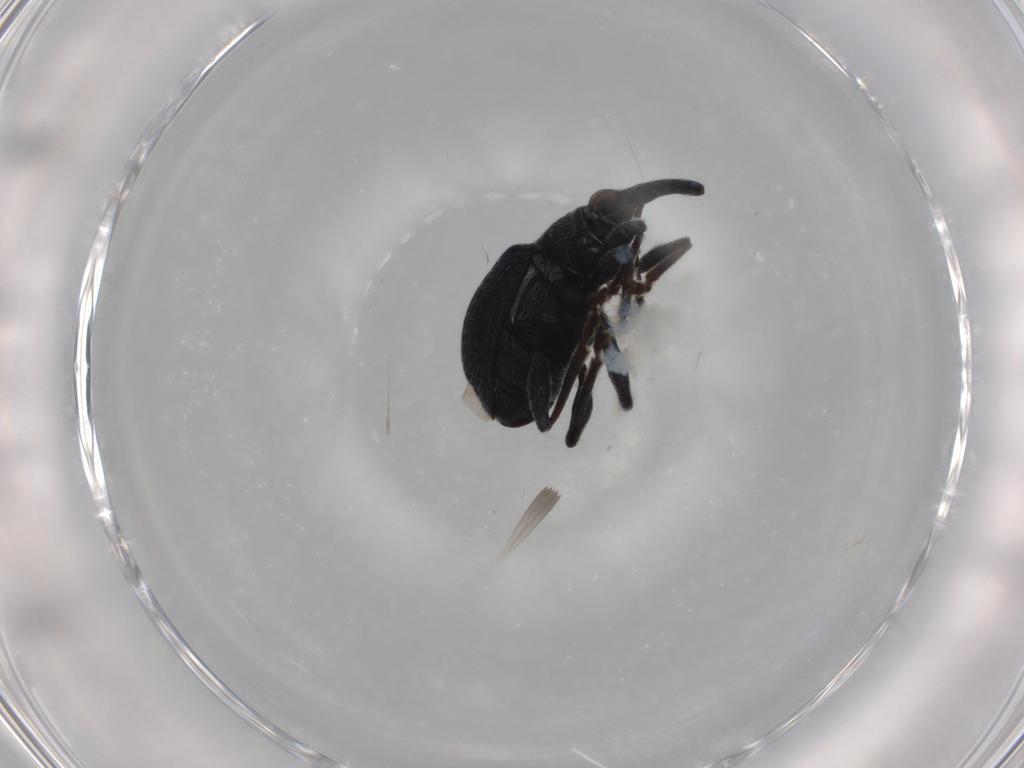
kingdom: Animalia
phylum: Arthropoda
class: Insecta
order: Coleoptera
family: Brentidae
